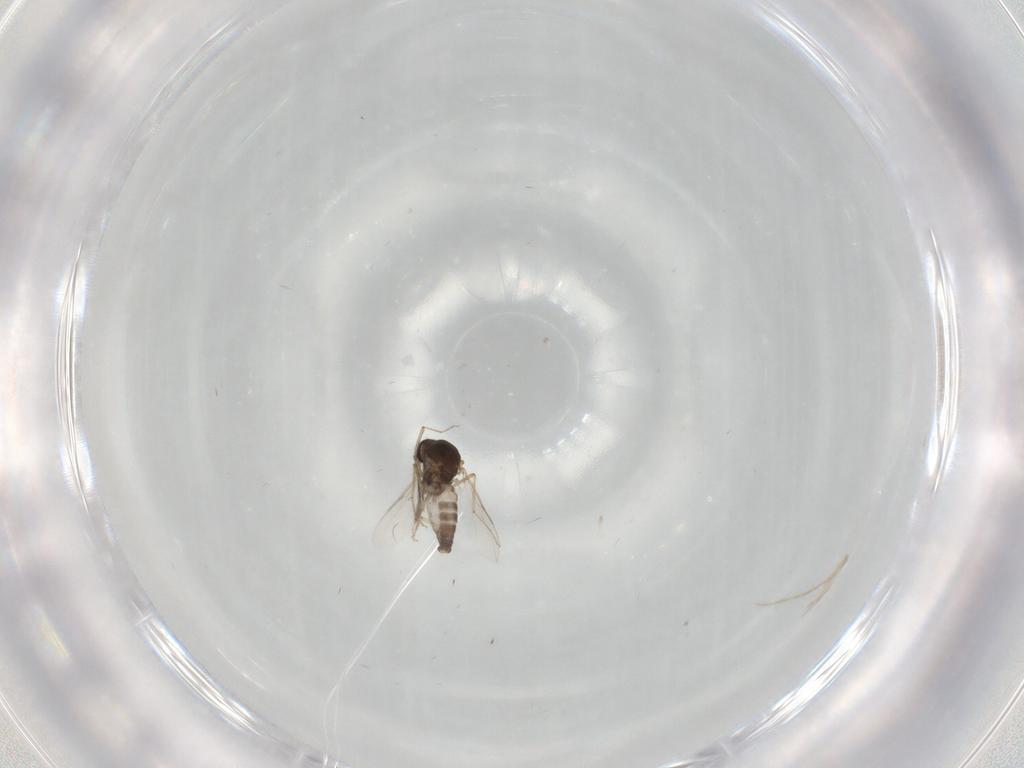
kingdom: Animalia
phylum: Arthropoda
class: Insecta
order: Diptera
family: Ceratopogonidae
